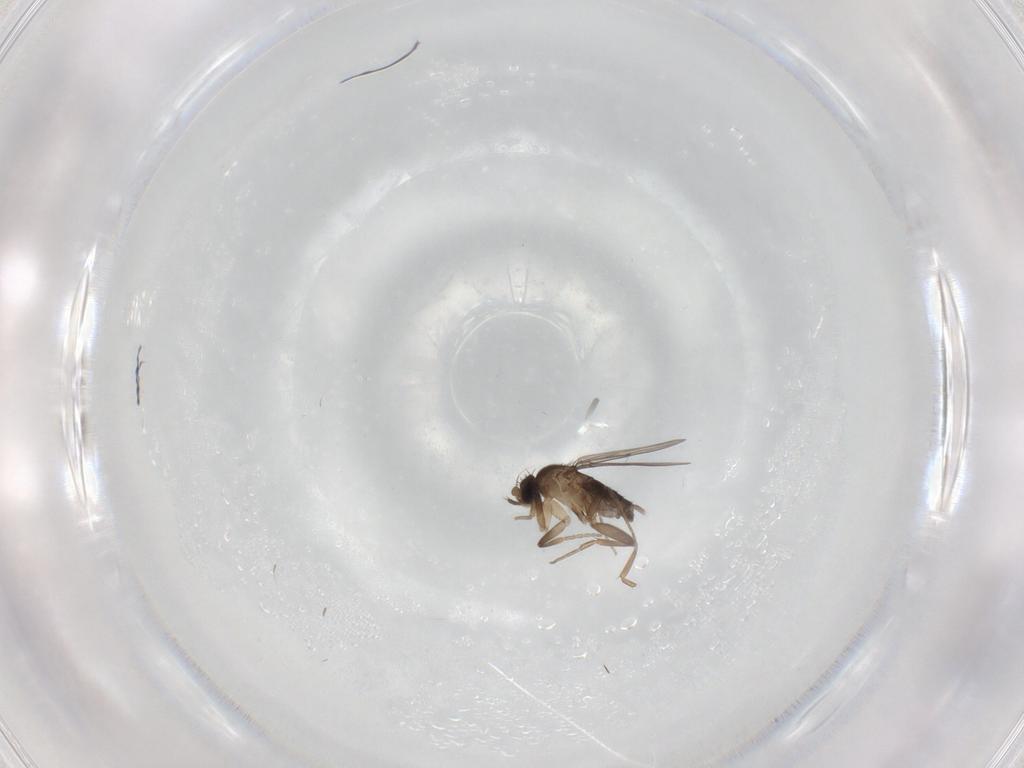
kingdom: Animalia
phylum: Arthropoda
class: Insecta
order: Diptera
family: Phoridae
